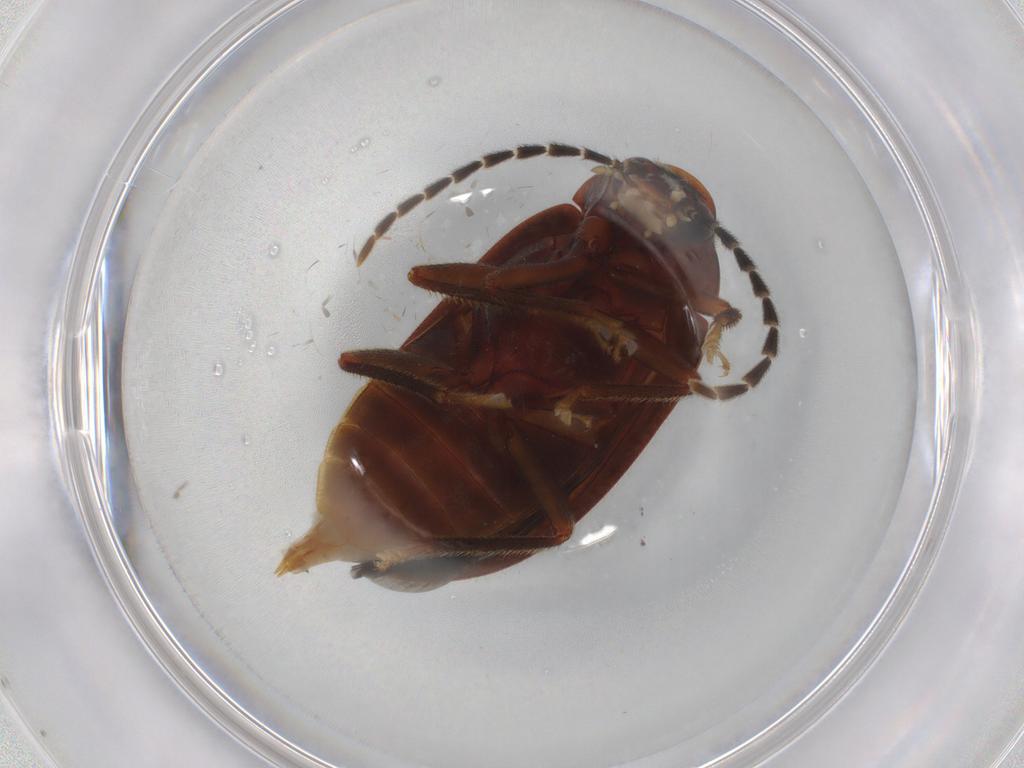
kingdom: Animalia
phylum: Arthropoda
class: Insecta
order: Coleoptera
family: Ptilodactylidae
